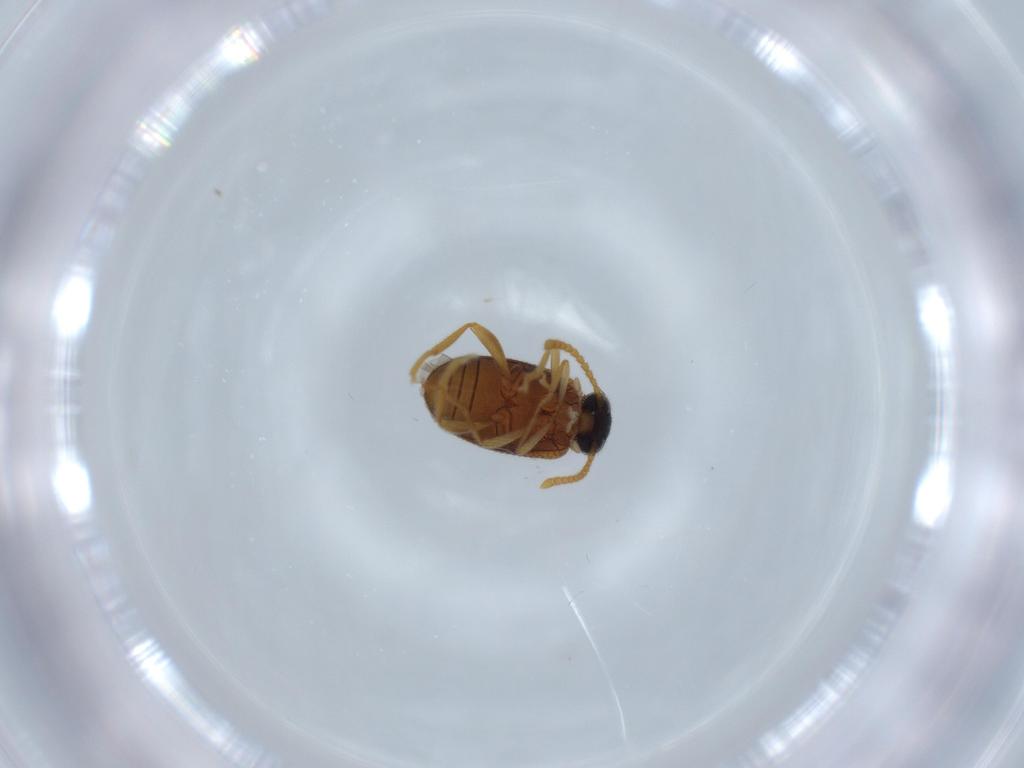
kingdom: Animalia
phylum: Arthropoda
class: Insecta
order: Coleoptera
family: Aderidae
